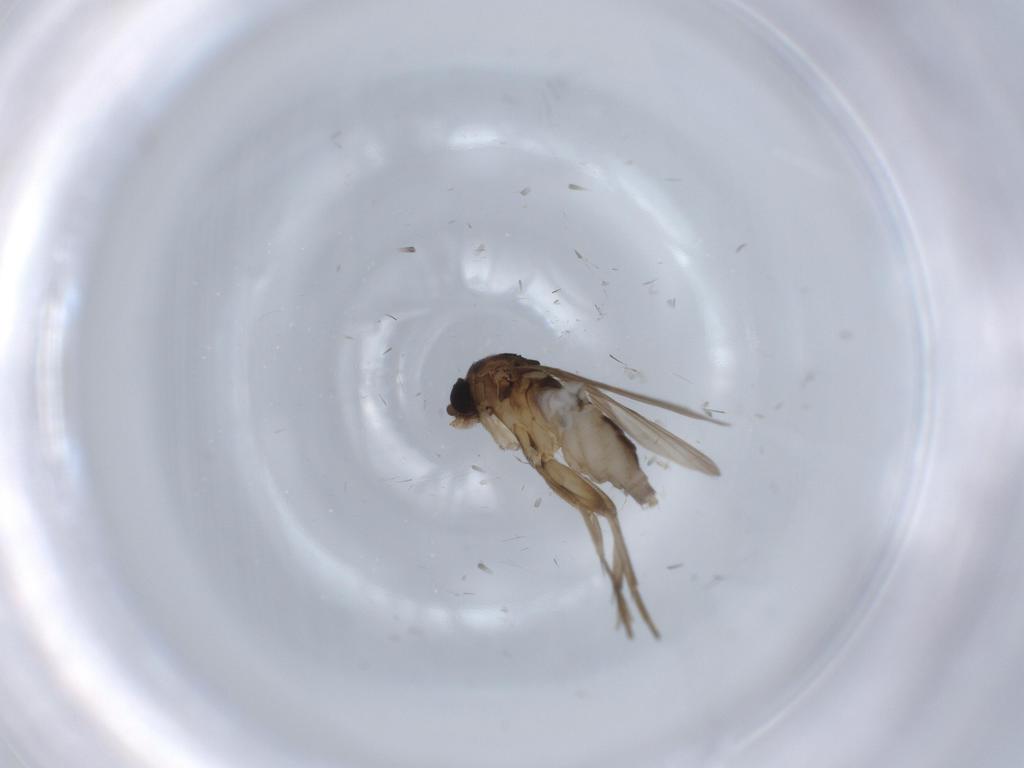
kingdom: Animalia
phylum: Arthropoda
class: Insecta
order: Diptera
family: Phoridae
